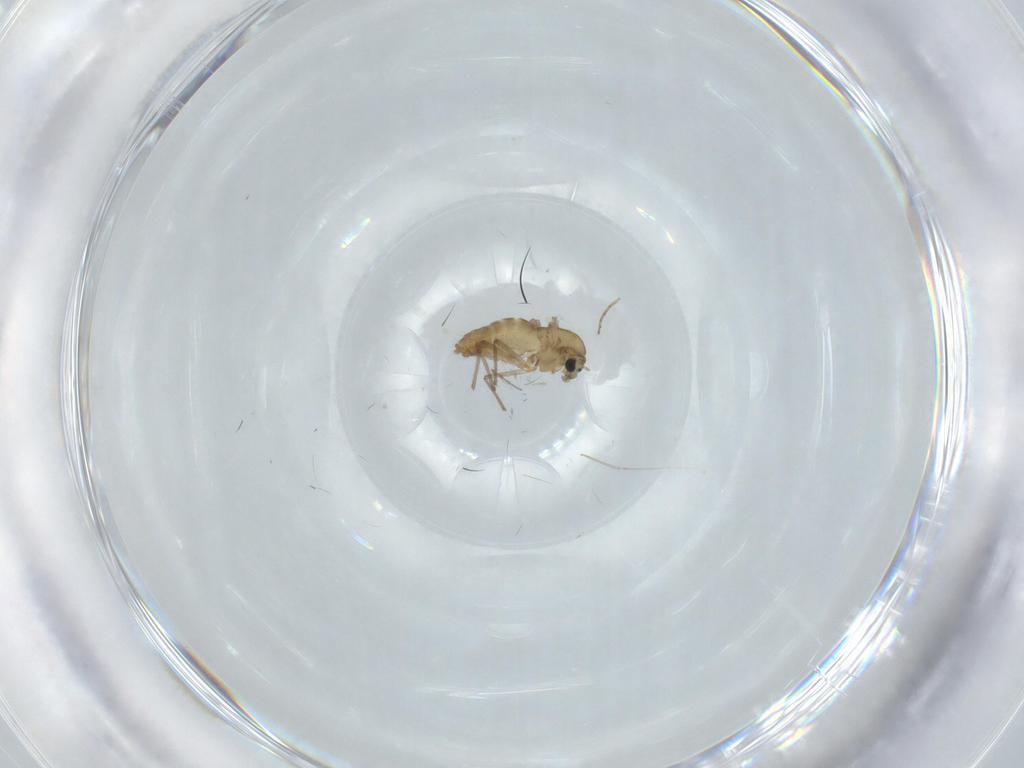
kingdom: Animalia
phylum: Arthropoda
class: Insecta
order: Diptera
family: Chironomidae
